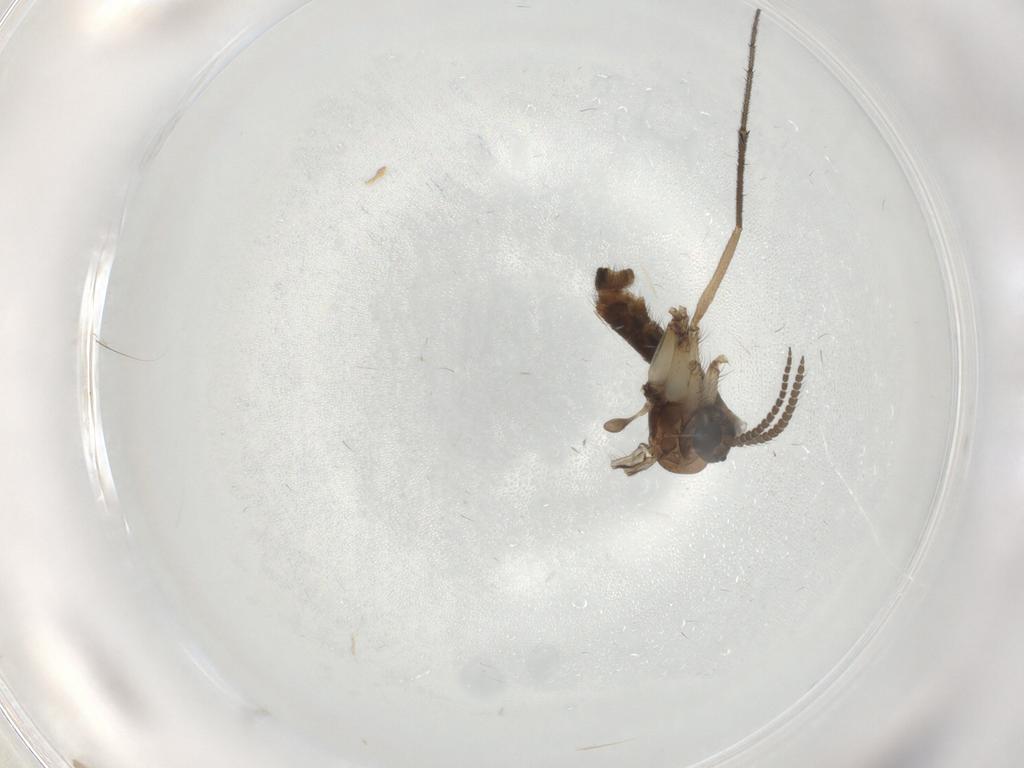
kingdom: Animalia
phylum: Arthropoda
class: Insecta
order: Diptera
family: Ditomyiidae
